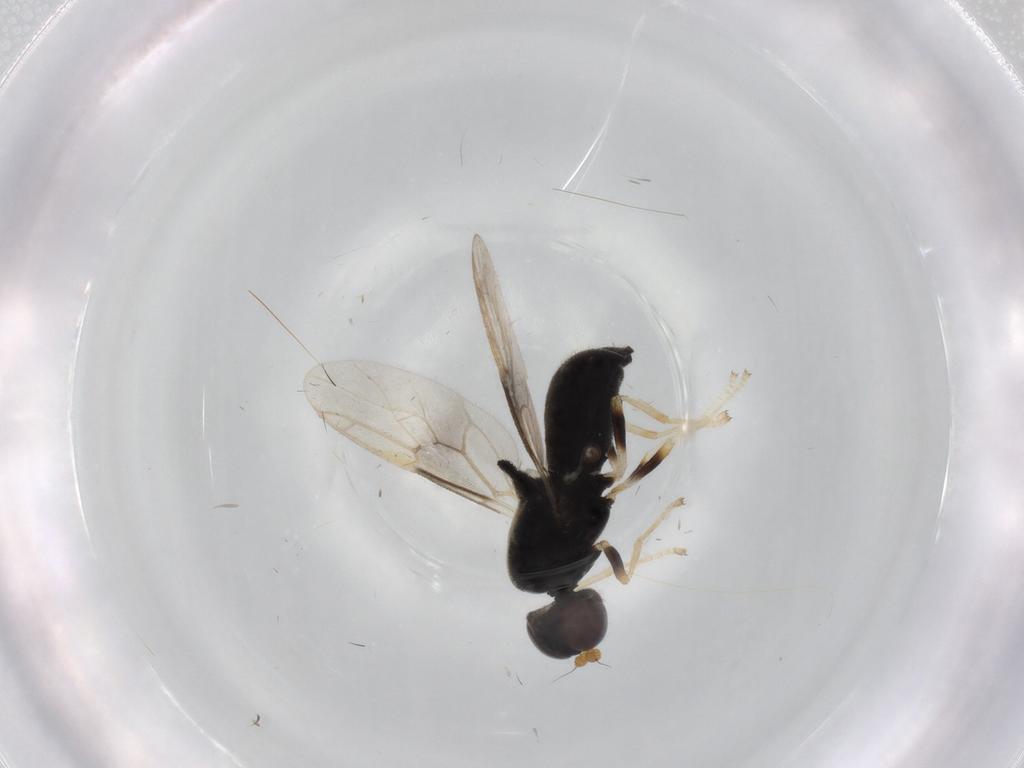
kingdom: Animalia
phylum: Arthropoda
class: Insecta
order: Diptera
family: Stratiomyidae
